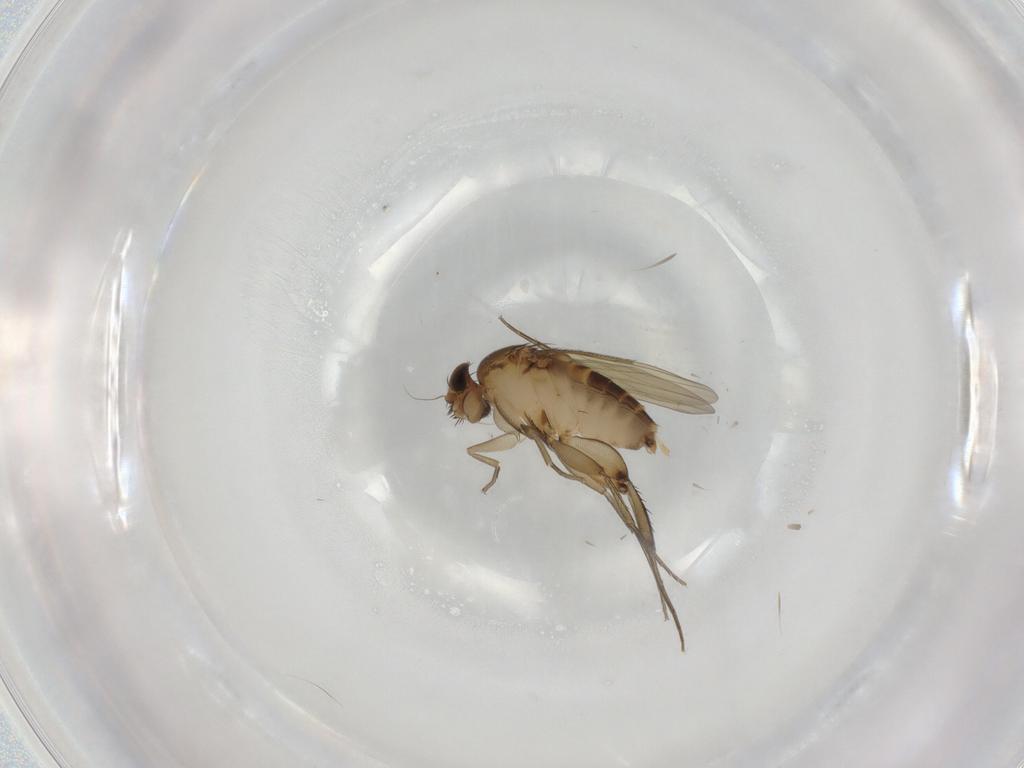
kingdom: Animalia
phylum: Arthropoda
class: Insecta
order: Diptera
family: Phoridae
